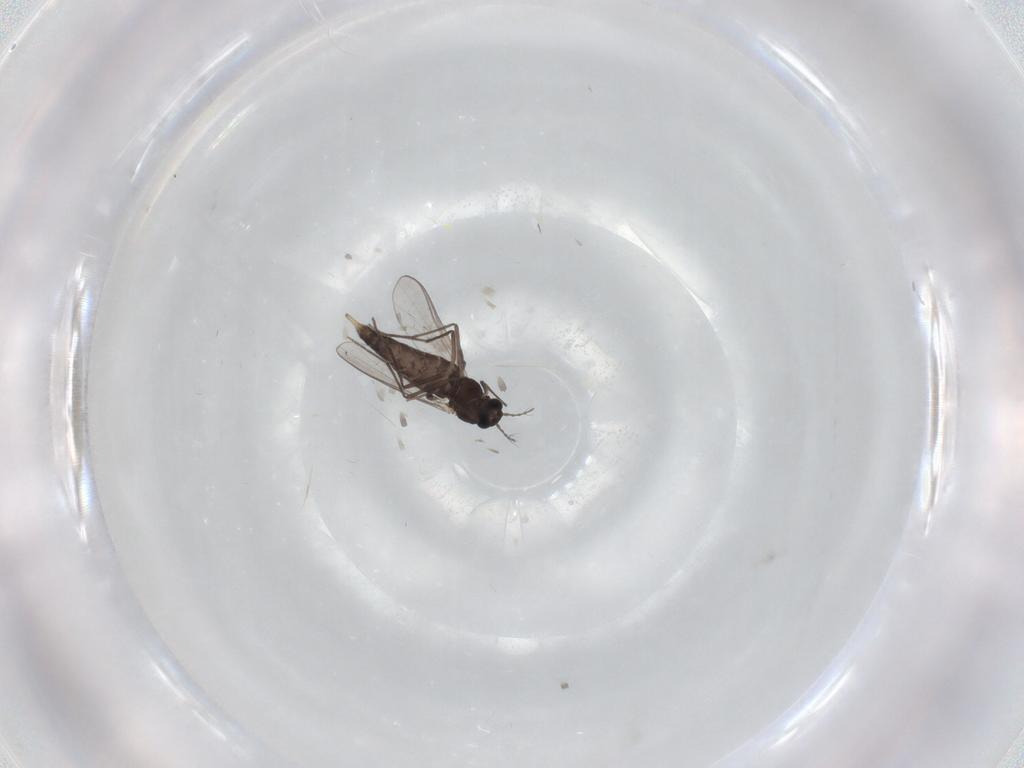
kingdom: Animalia
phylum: Arthropoda
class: Insecta
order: Diptera
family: Chironomidae
